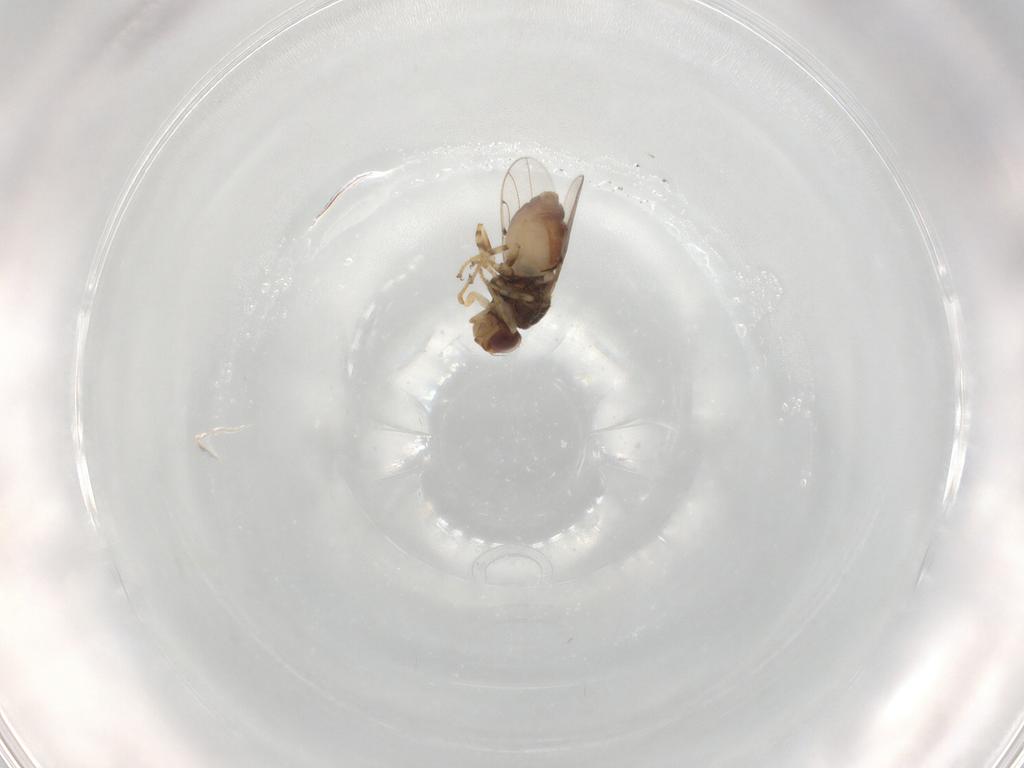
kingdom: Animalia
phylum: Arthropoda
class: Insecta
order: Diptera
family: Chloropidae
